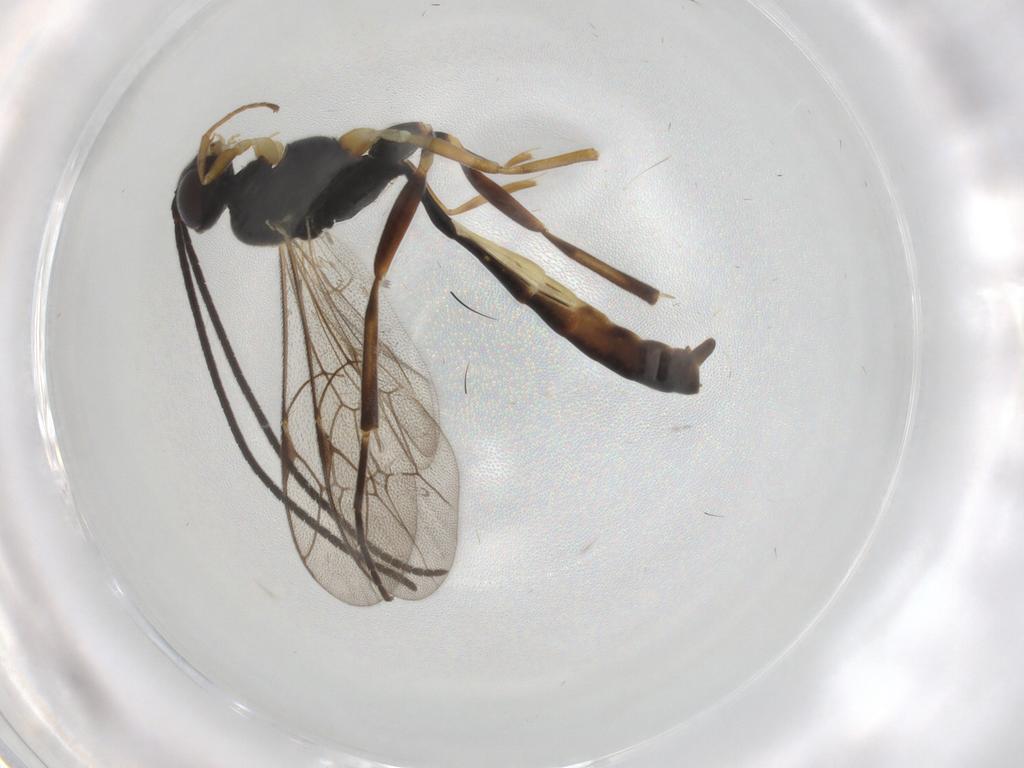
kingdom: Animalia
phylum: Arthropoda
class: Insecta
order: Hymenoptera
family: Ichneumonidae
